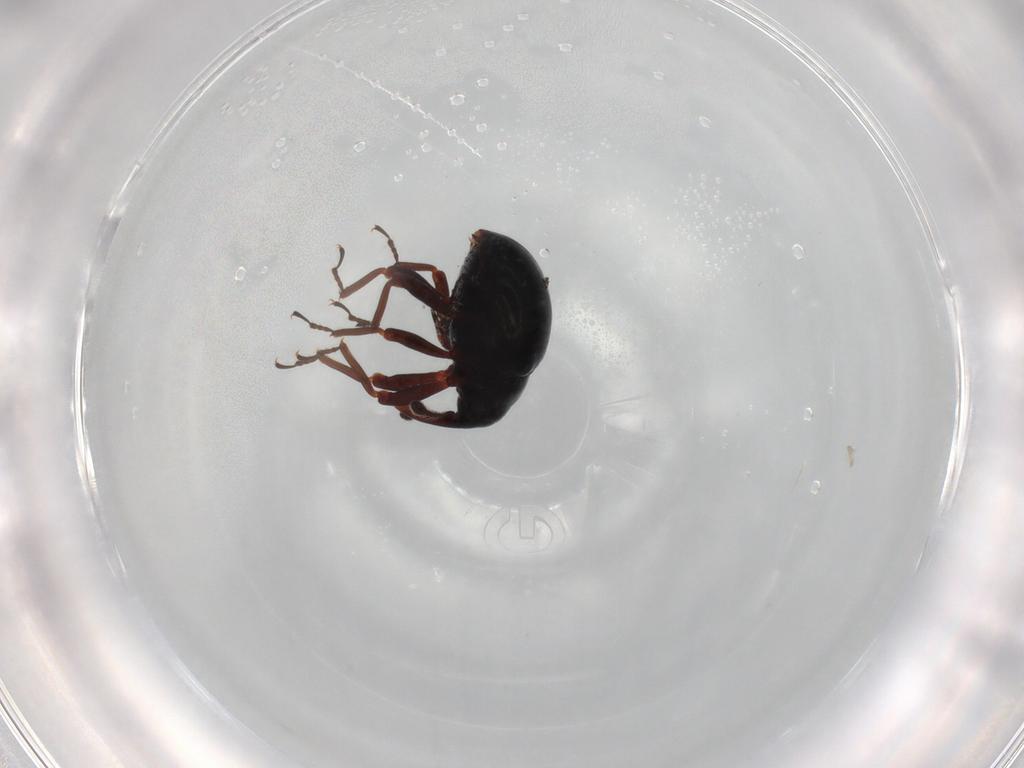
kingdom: Animalia
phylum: Arthropoda
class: Insecta
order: Coleoptera
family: Curculionidae
